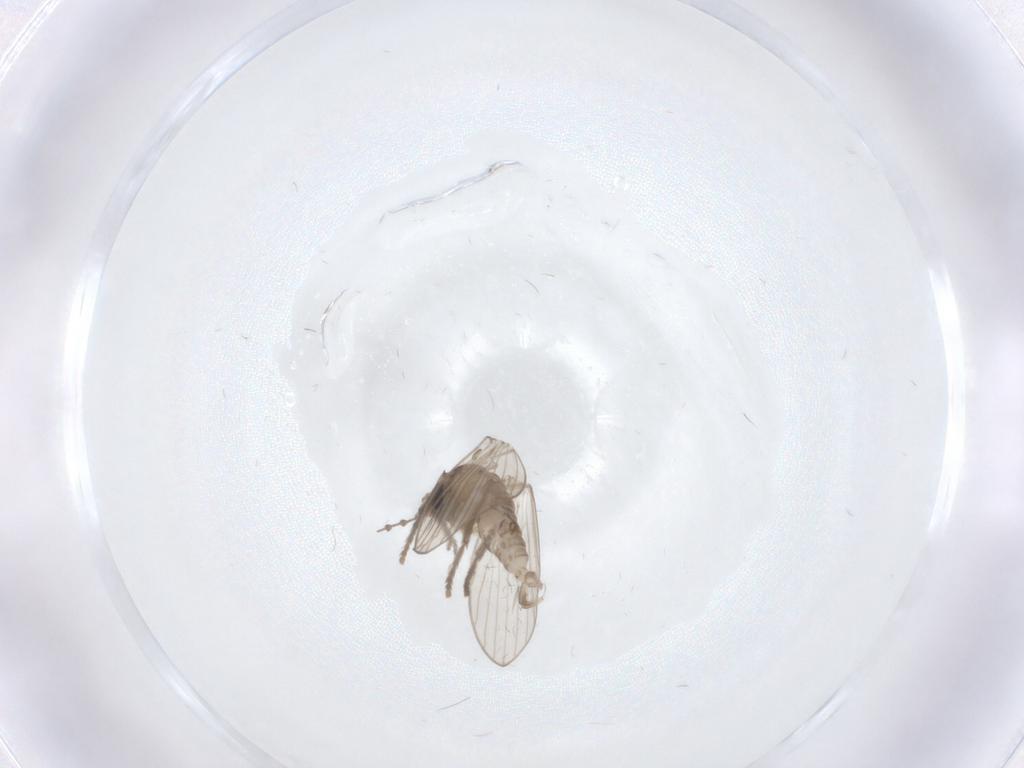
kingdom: Animalia
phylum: Arthropoda
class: Insecta
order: Diptera
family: Psychodidae
